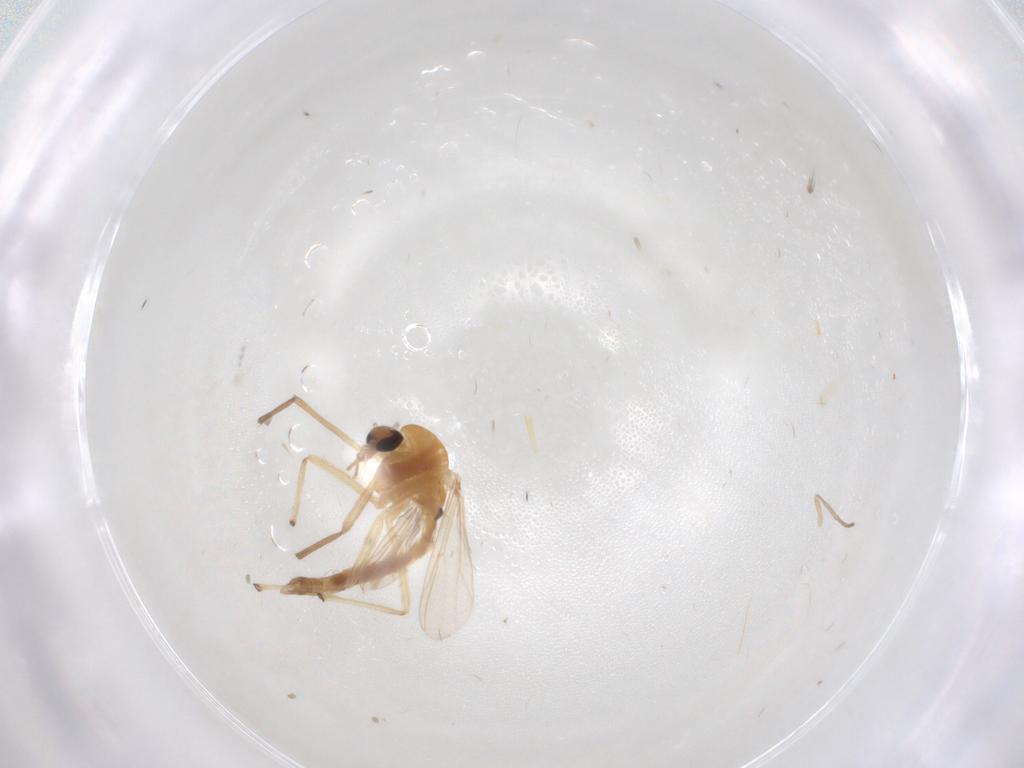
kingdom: Animalia
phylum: Arthropoda
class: Insecta
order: Diptera
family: Chironomidae
